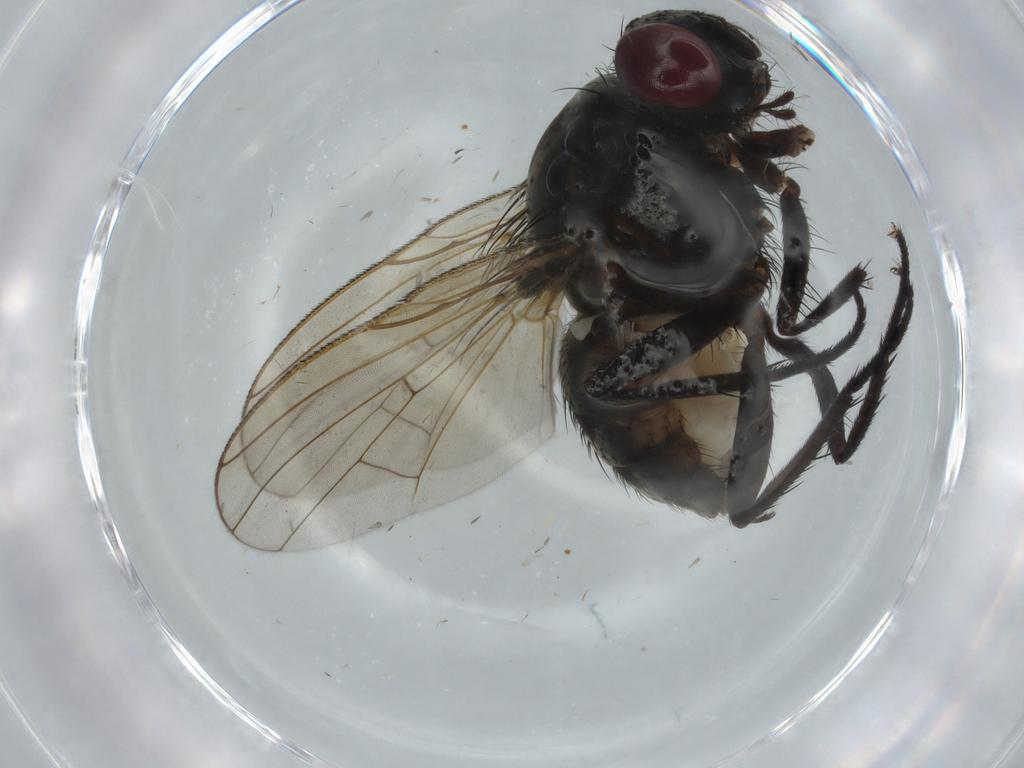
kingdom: Animalia
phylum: Arthropoda
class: Insecta
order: Diptera
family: Anthomyiidae
